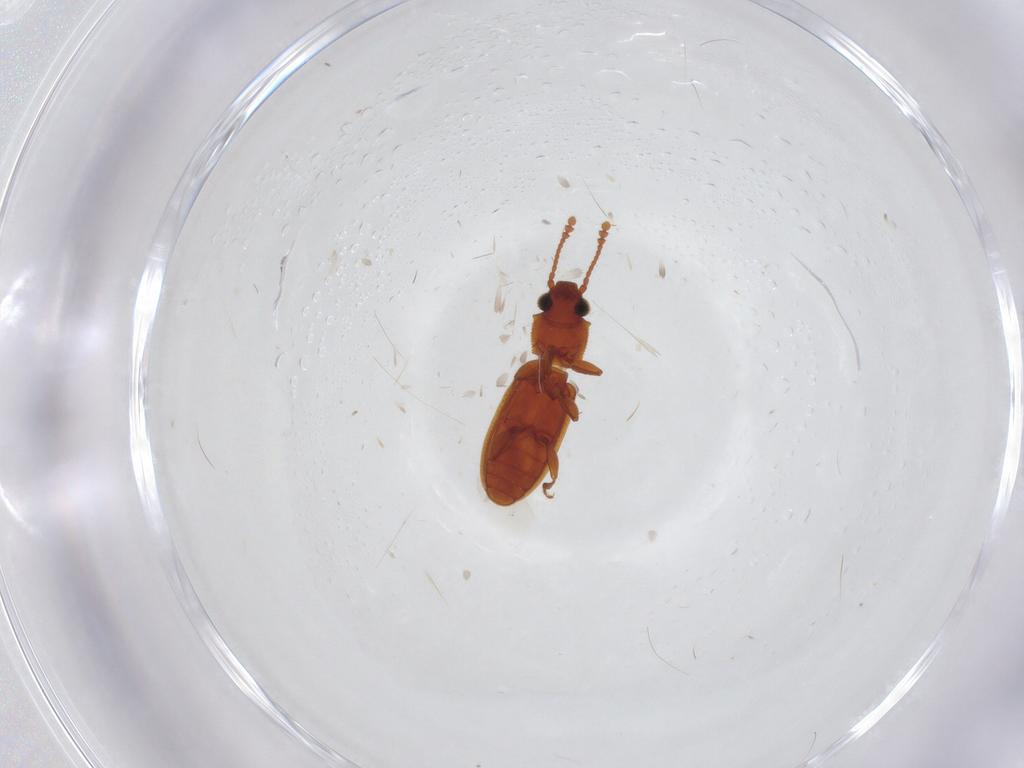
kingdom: Animalia
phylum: Arthropoda
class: Insecta
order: Coleoptera
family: Silvanidae
